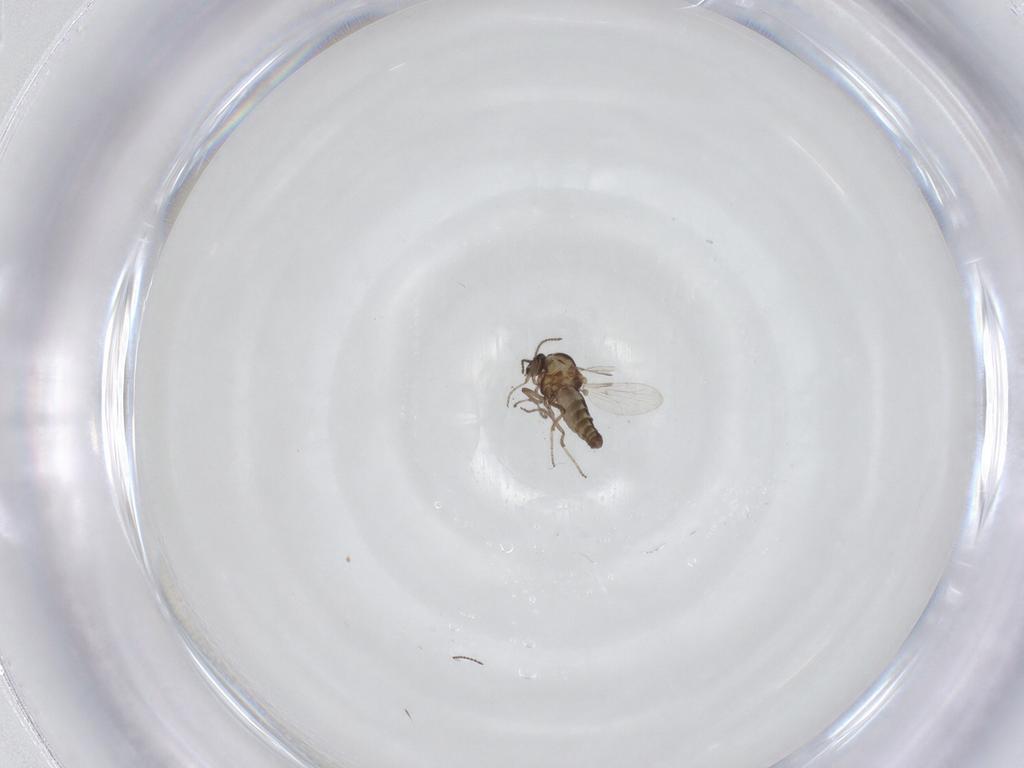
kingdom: Animalia
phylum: Arthropoda
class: Insecta
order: Diptera
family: Ceratopogonidae
